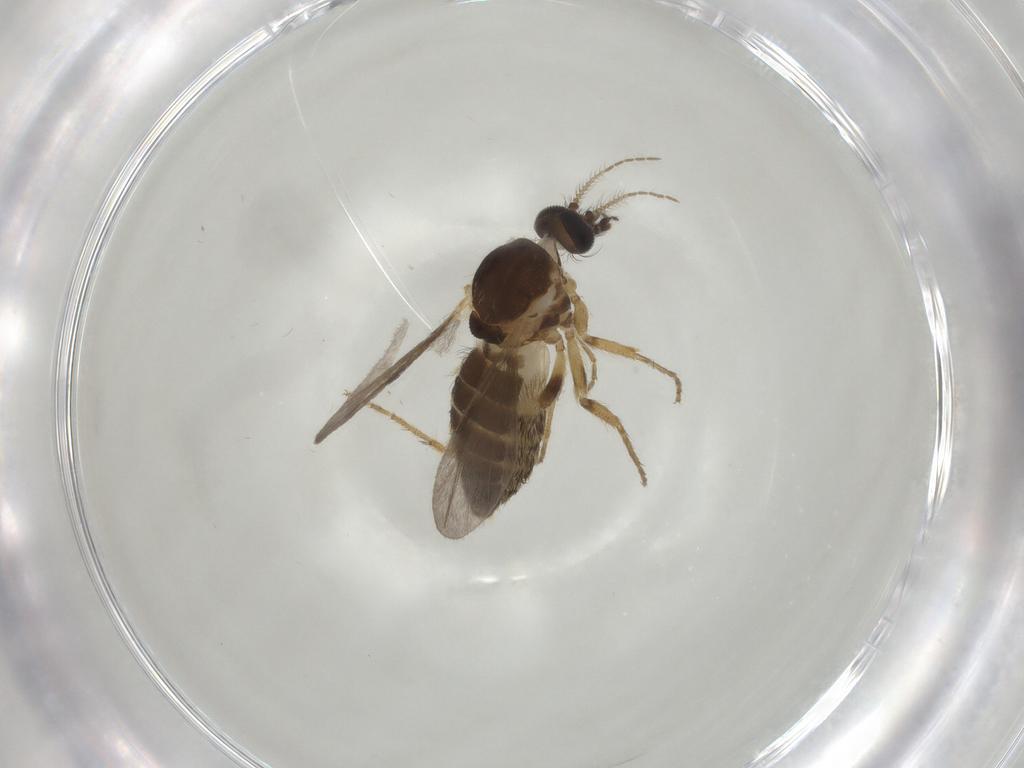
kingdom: Animalia
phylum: Arthropoda
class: Insecta
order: Diptera
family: Ceratopogonidae
